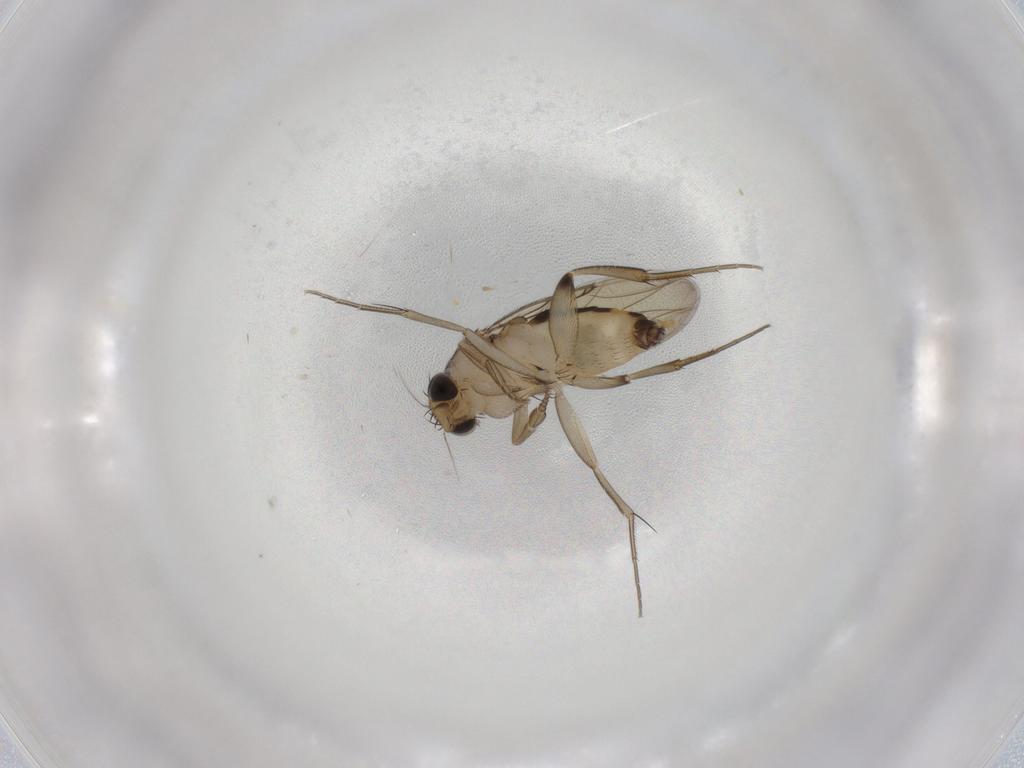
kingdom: Animalia
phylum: Arthropoda
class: Insecta
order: Diptera
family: Phoridae
